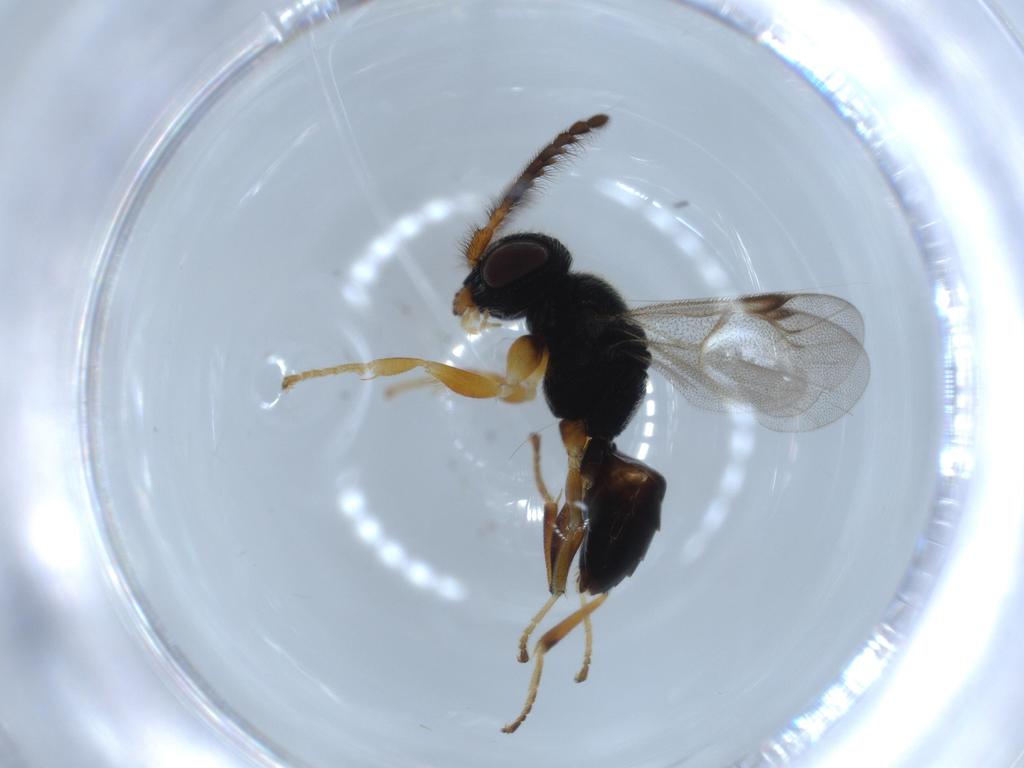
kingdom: Animalia
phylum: Arthropoda
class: Insecta
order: Hymenoptera
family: Dryinidae
